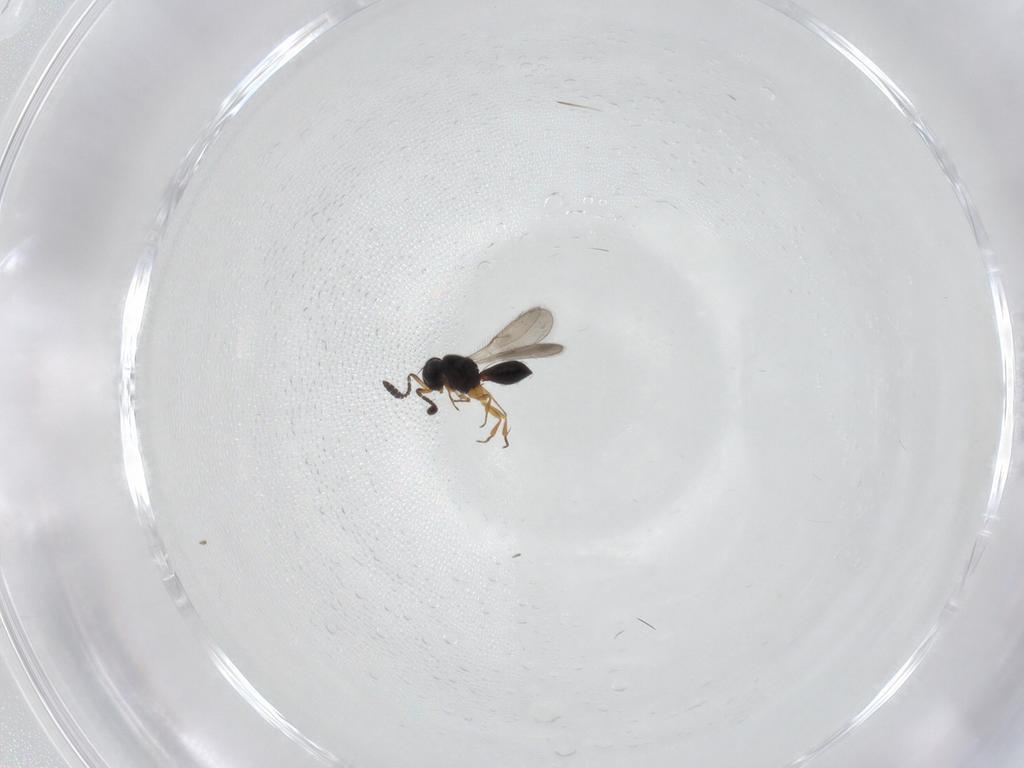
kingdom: Animalia
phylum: Arthropoda
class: Insecta
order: Hymenoptera
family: Scelionidae
